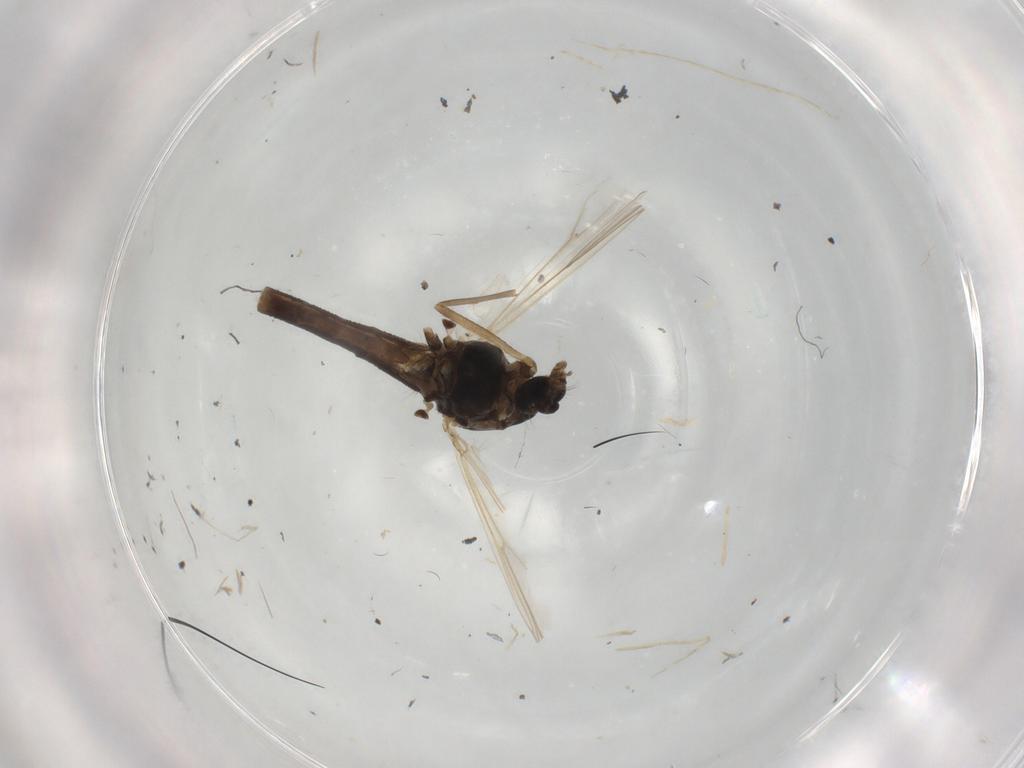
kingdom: Animalia
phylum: Arthropoda
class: Insecta
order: Diptera
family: Chironomidae
